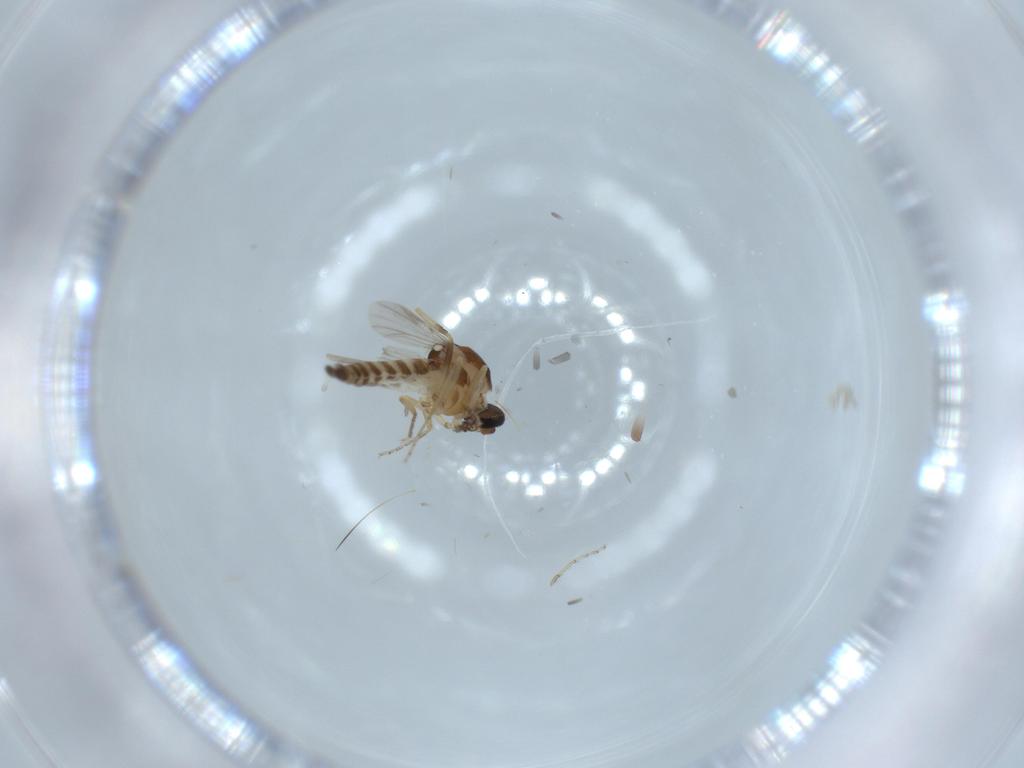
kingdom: Animalia
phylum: Arthropoda
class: Insecta
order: Diptera
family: Ceratopogonidae
